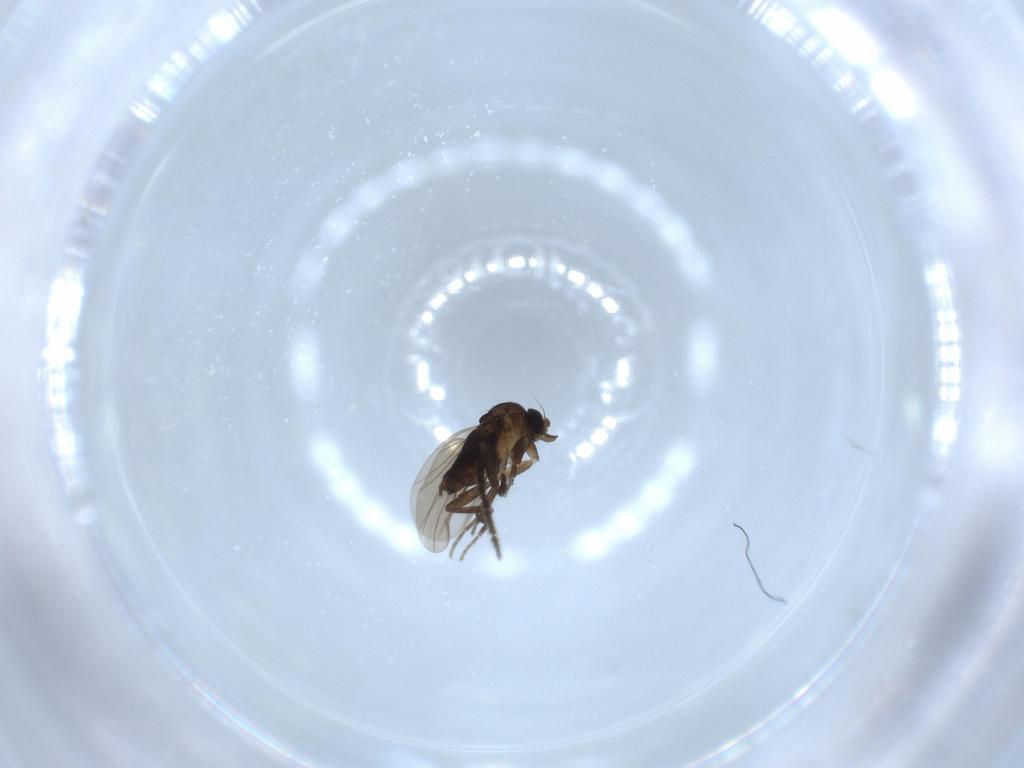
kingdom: Animalia
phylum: Arthropoda
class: Insecta
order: Diptera
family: Phoridae
